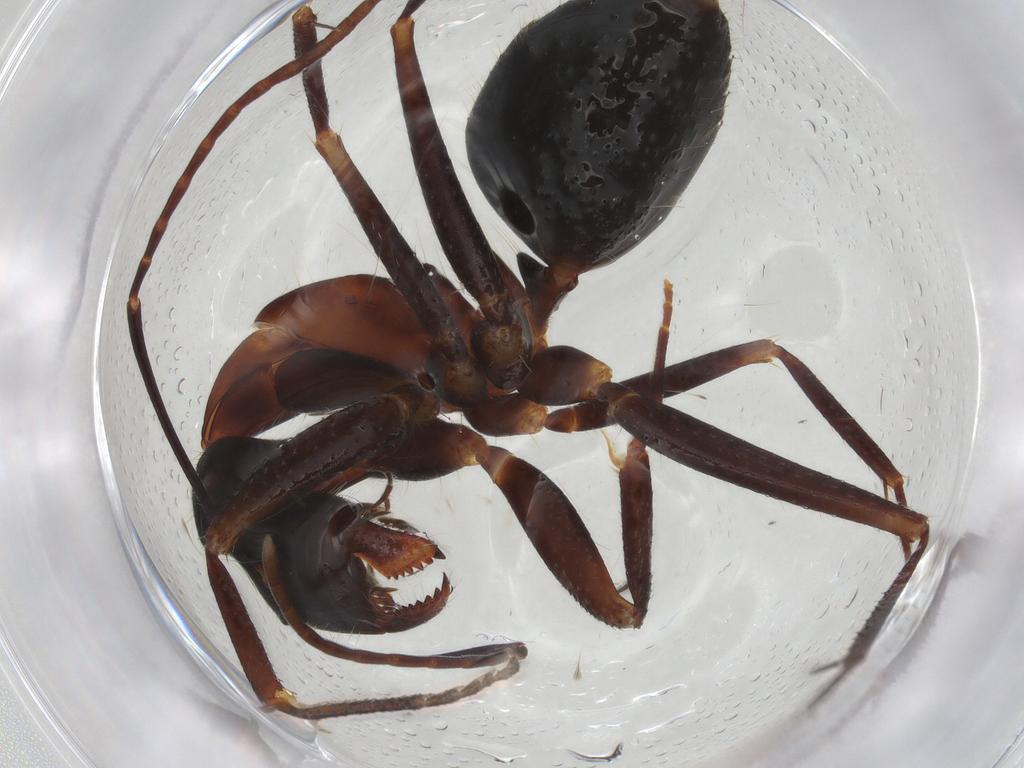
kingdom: Animalia
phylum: Arthropoda
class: Insecta
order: Hymenoptera
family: Formicidae
